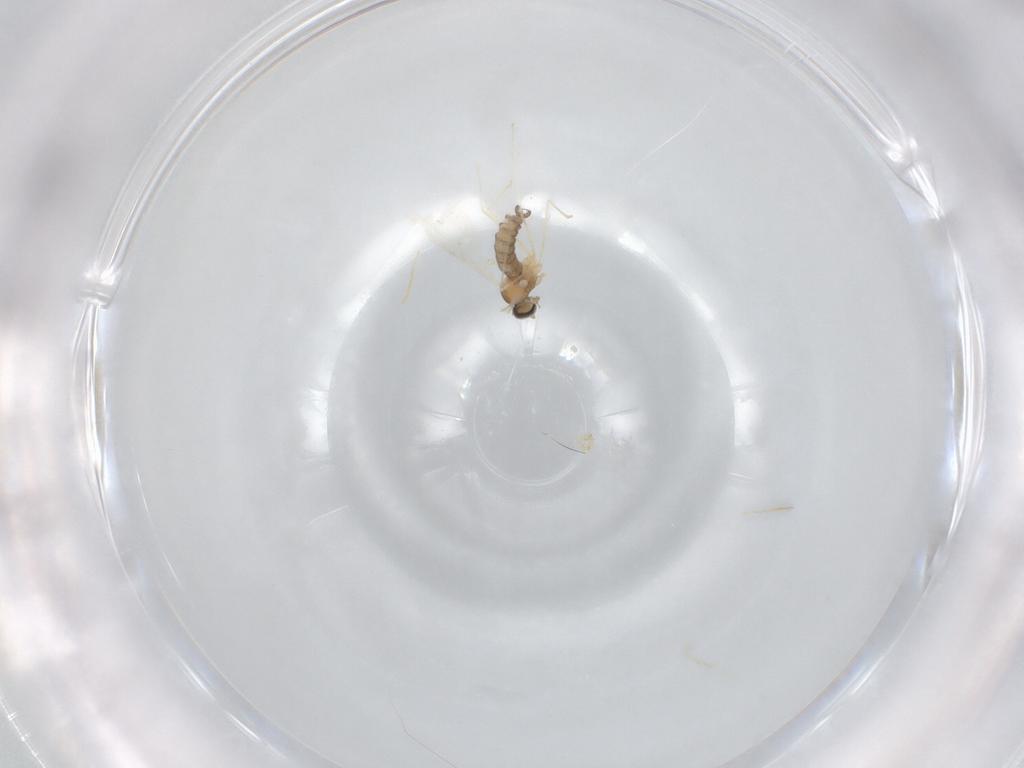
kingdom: Animalia
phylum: Arthropoda
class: Insecta
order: Diptera
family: Cecidomyiidae
